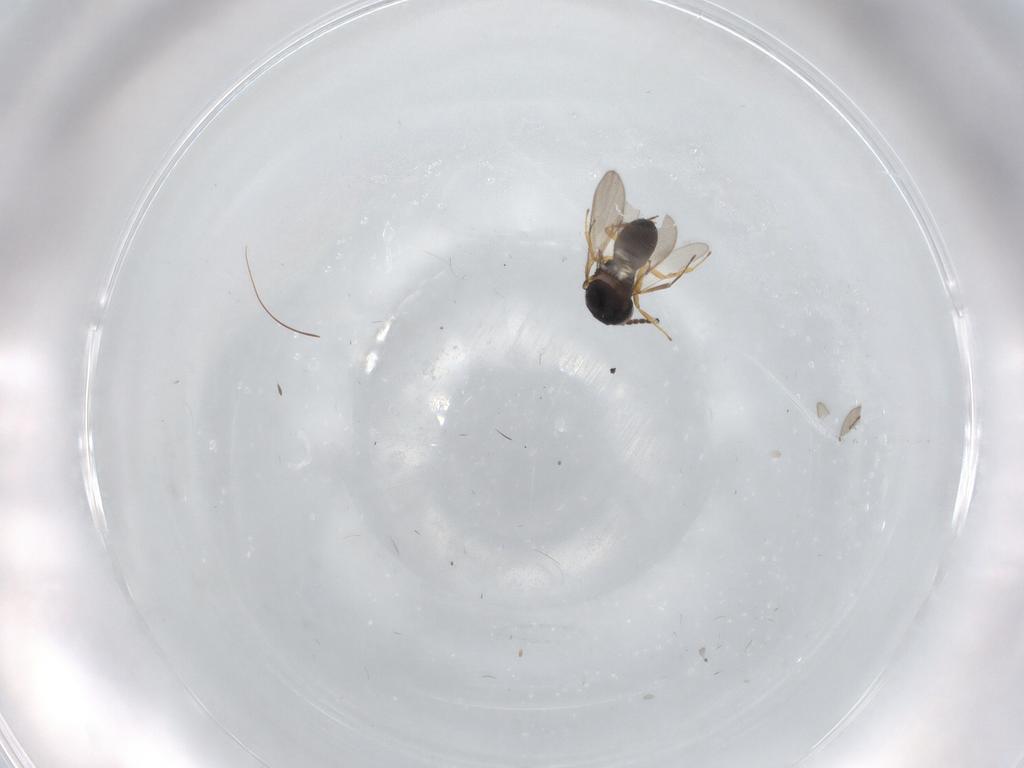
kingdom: Animalia
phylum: Arthropoda
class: Insecta
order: Hymenoptera
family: Scelionidae
